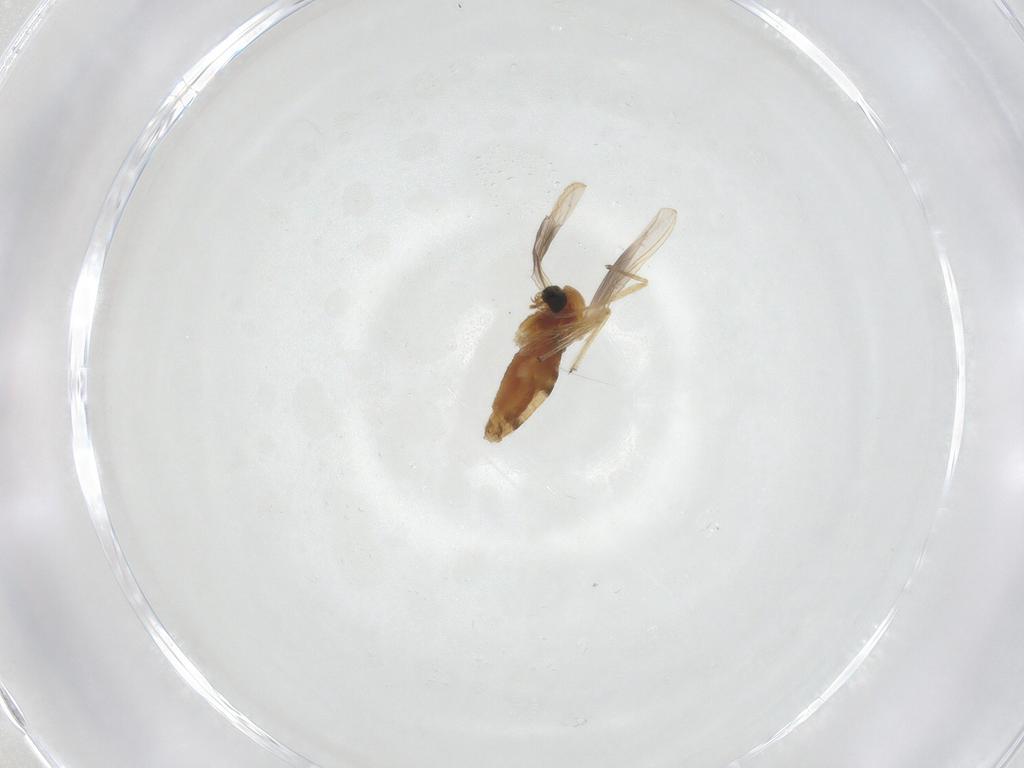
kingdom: Animalia
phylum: Arthropoda
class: Insecta
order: Diptera
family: Chironomidae
